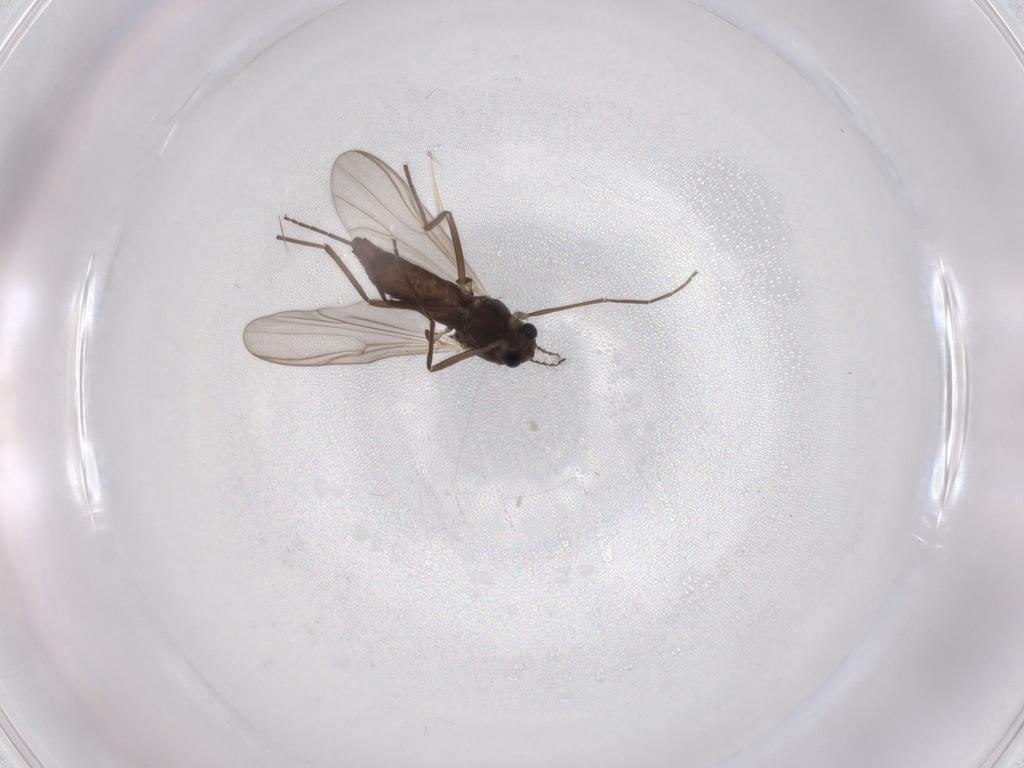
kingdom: Animalia
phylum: Arthropoda
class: Insecta
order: Diptera
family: Chironomidae
